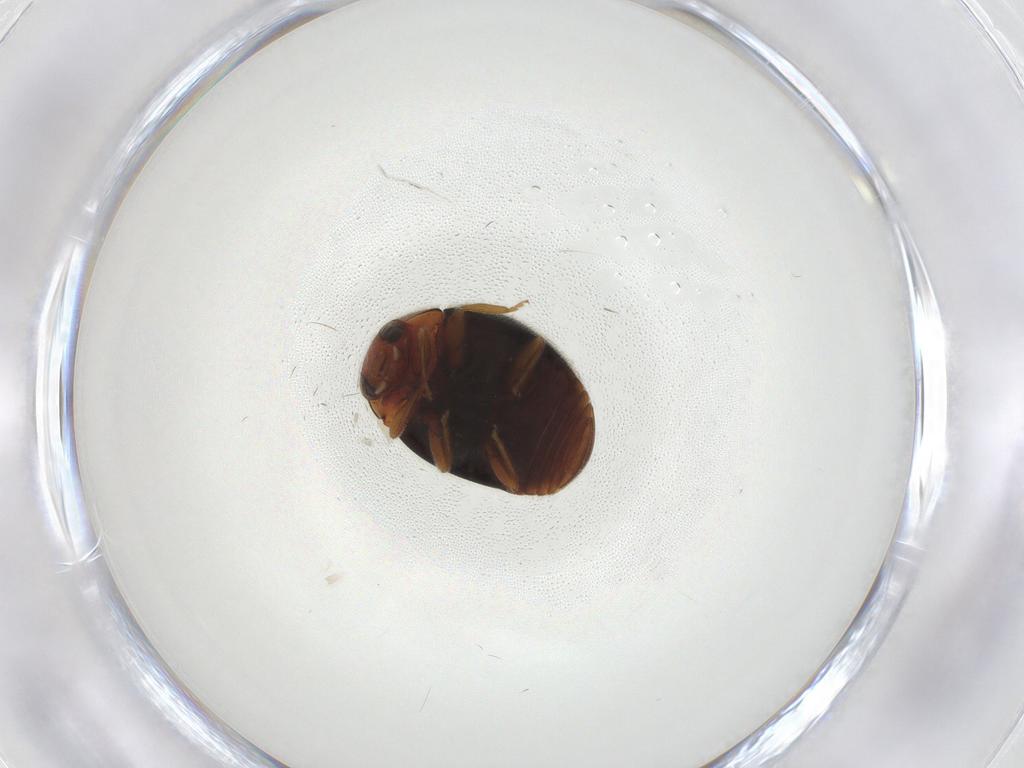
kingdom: Animalia
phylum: Arthropoda
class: Insecta
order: Coleoptera
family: Coccinellidae
